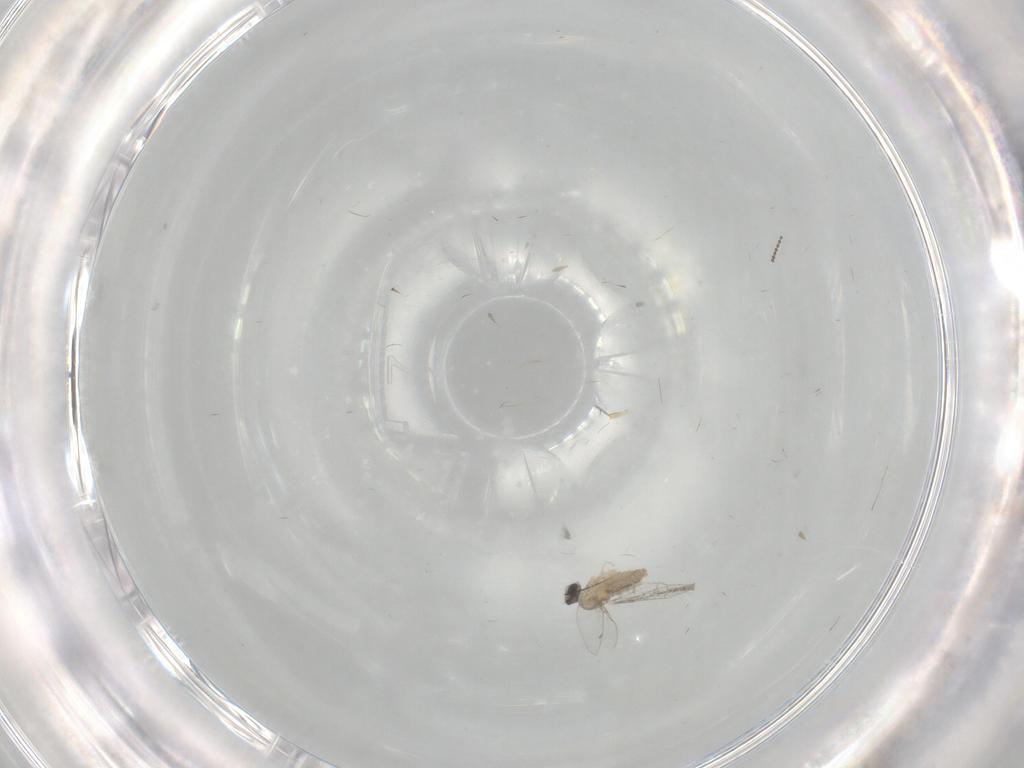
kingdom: Animalia
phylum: Arthropoda
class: Insecta
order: Diptera
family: Cecidomyiidae
